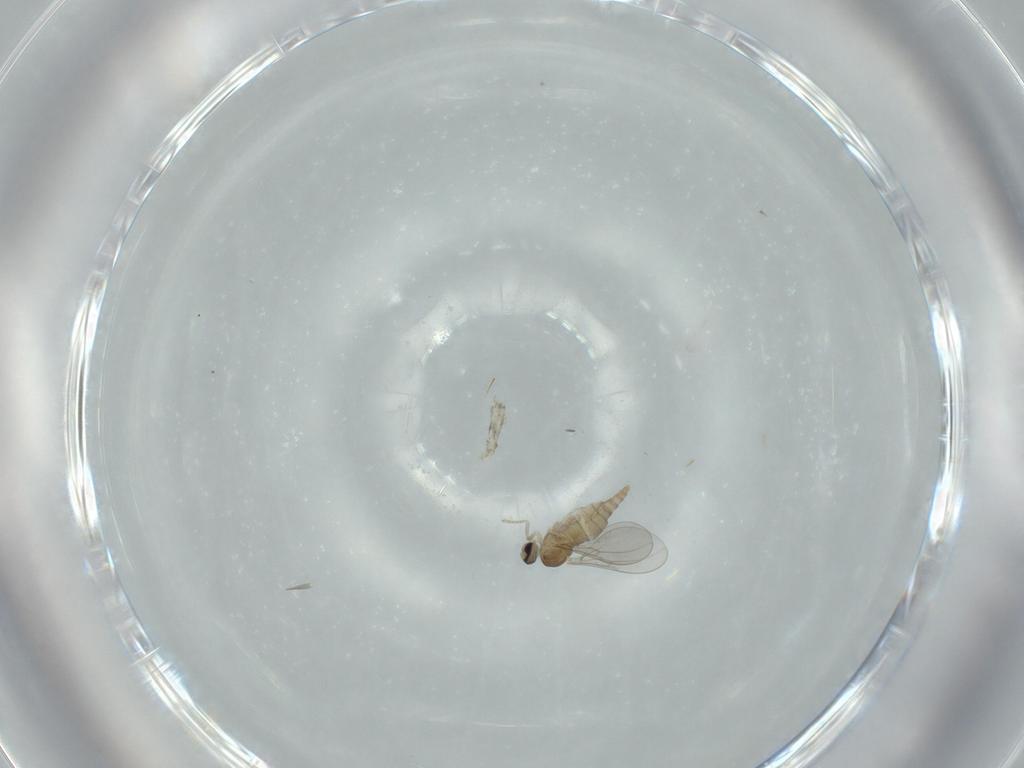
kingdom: Animalia
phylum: Arthropoda
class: Insecta
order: Diptera
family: Cecidomyiidae
